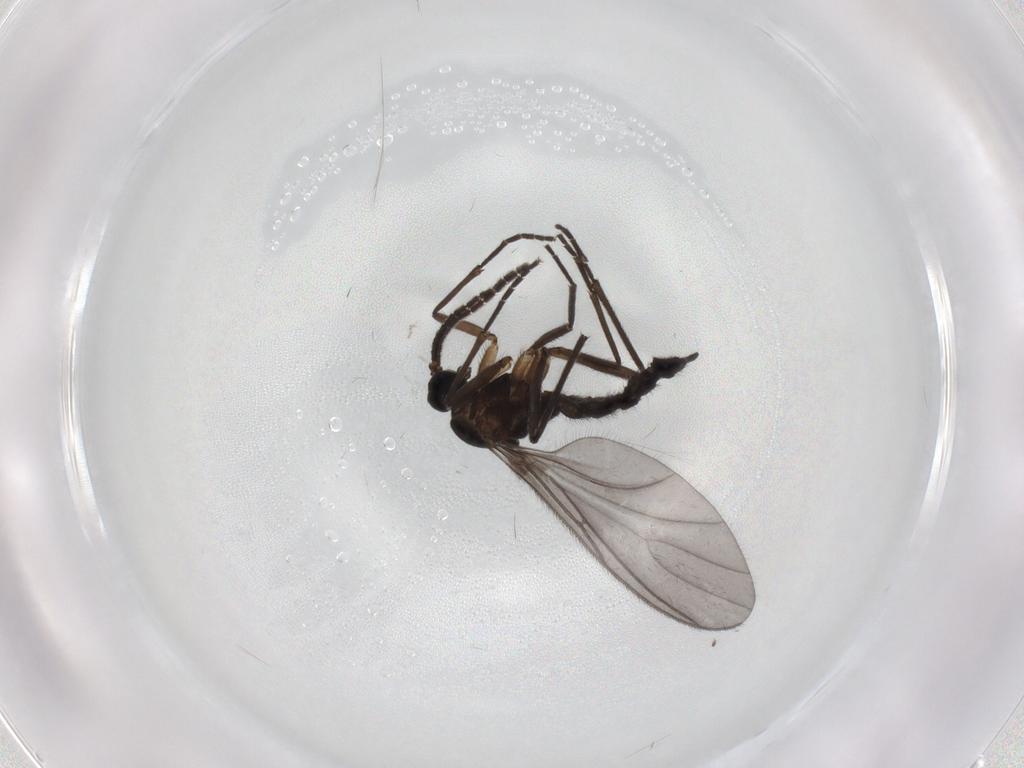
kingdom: Animalia
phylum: Arthropoda
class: Insecta
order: Diptera
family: Sciaridae
